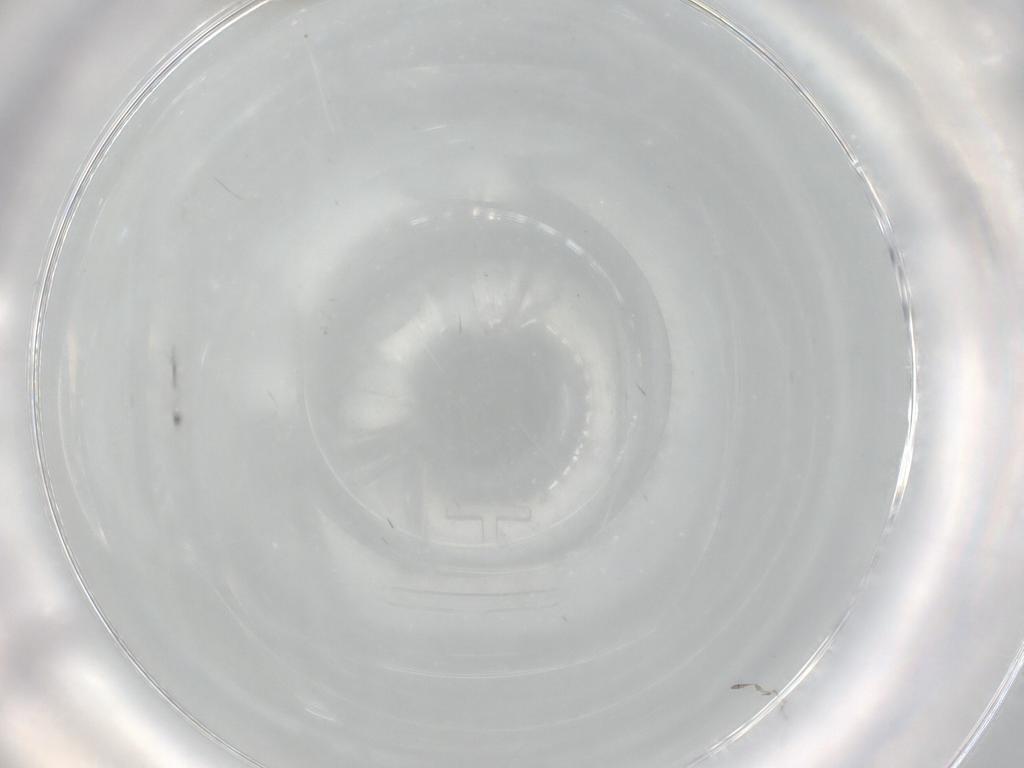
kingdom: Animalia
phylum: Arthropoda
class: Insecta
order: Diptera
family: Cecidomyiidae
